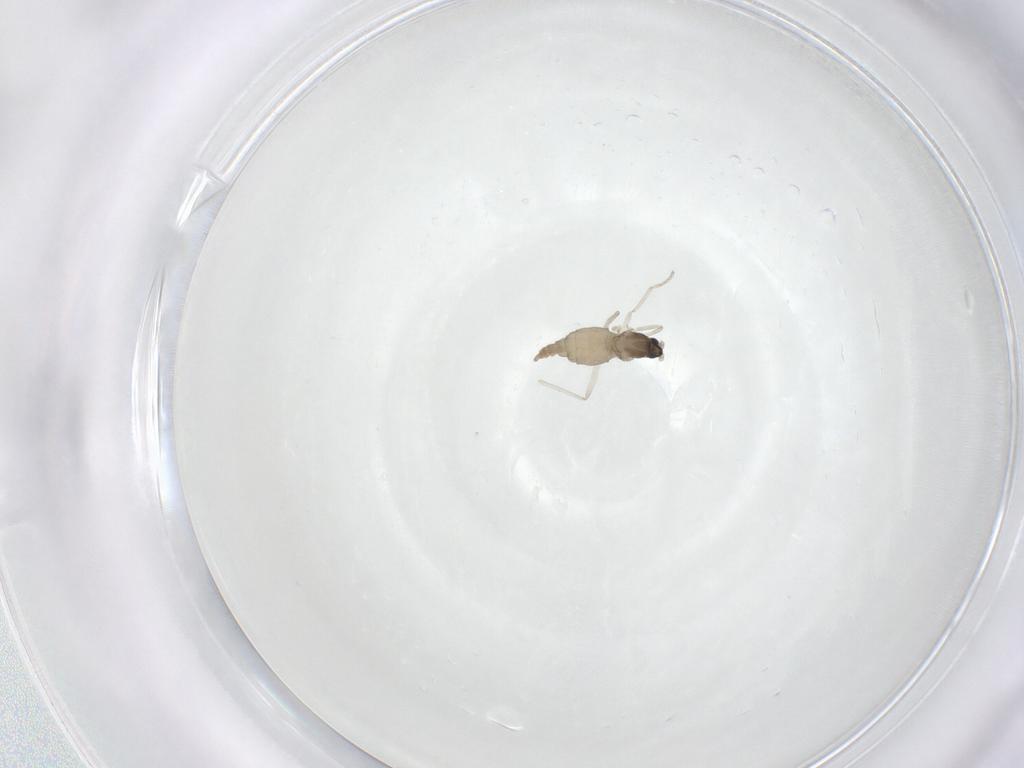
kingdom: Animalia
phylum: Arthropoda
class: Insecta
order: Diptera
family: Cecidomyiidae
